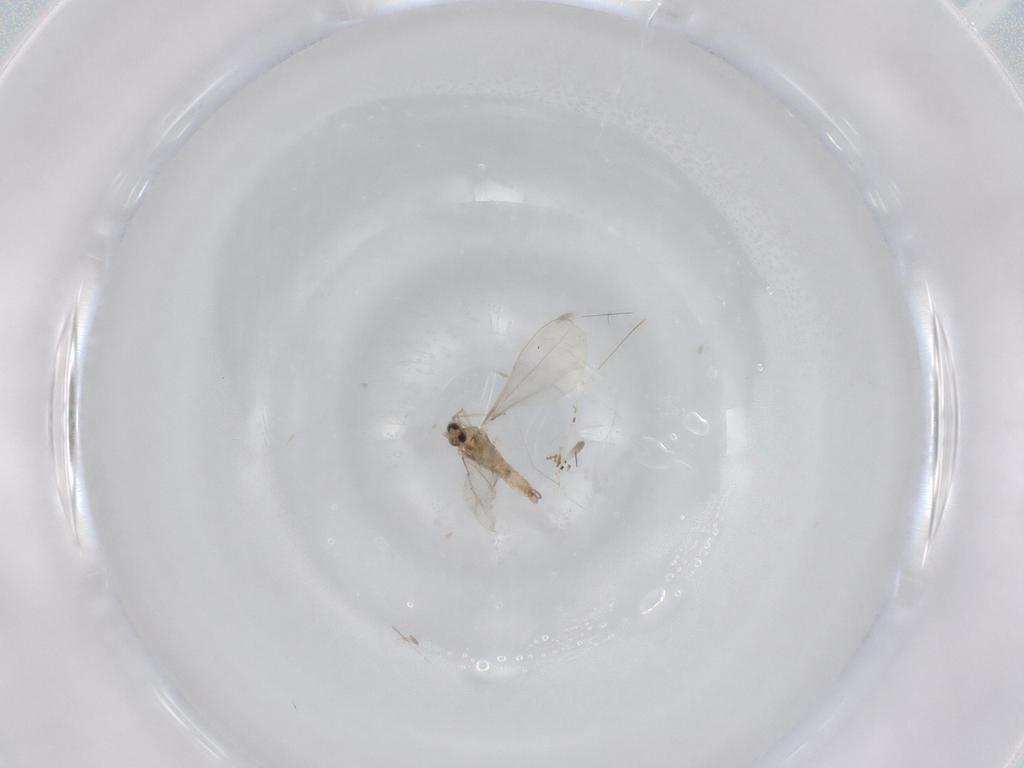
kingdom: Animalia
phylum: Arthropoda
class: Insecta
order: Diptera
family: Cecidomyiidae
